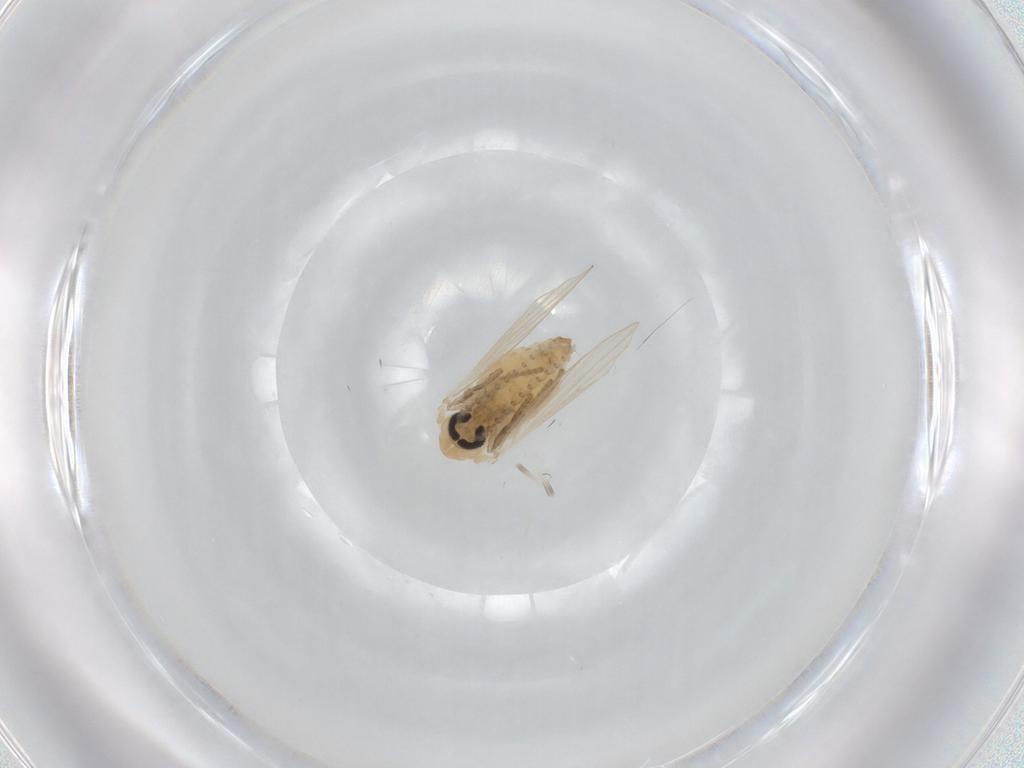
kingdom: Animalia
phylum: Arthropoda
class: Insecta
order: Diptera
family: Psychodidae
